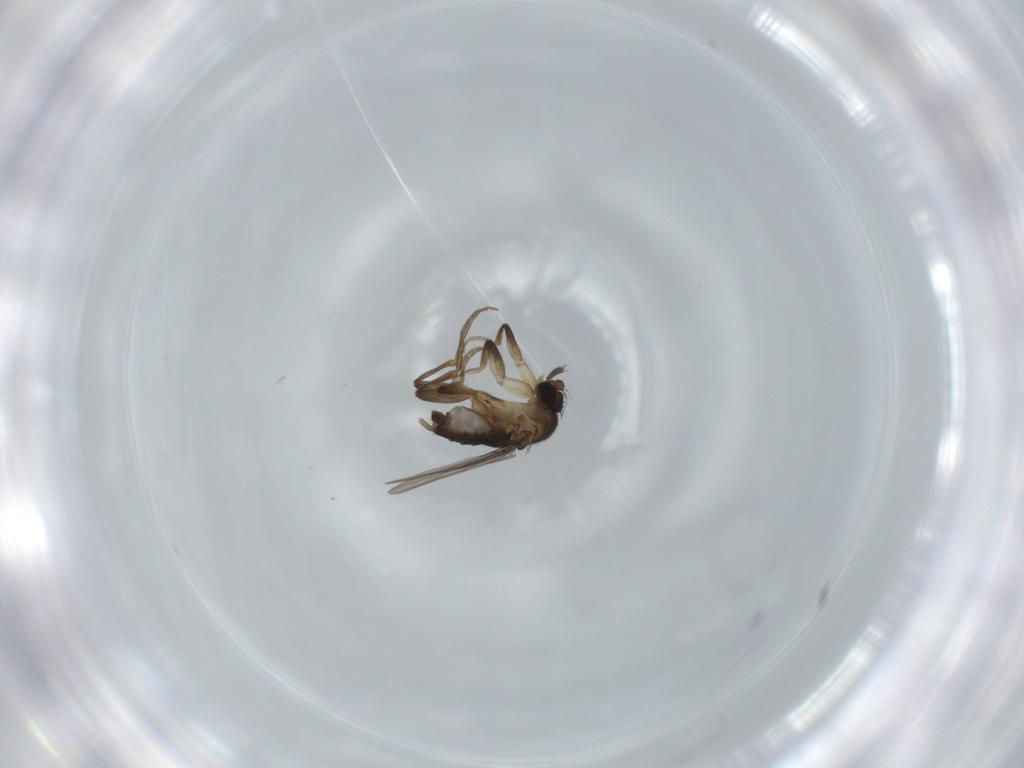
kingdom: Animalia
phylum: Arthropoda
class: Insecta
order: Diptera
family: Phoridae
